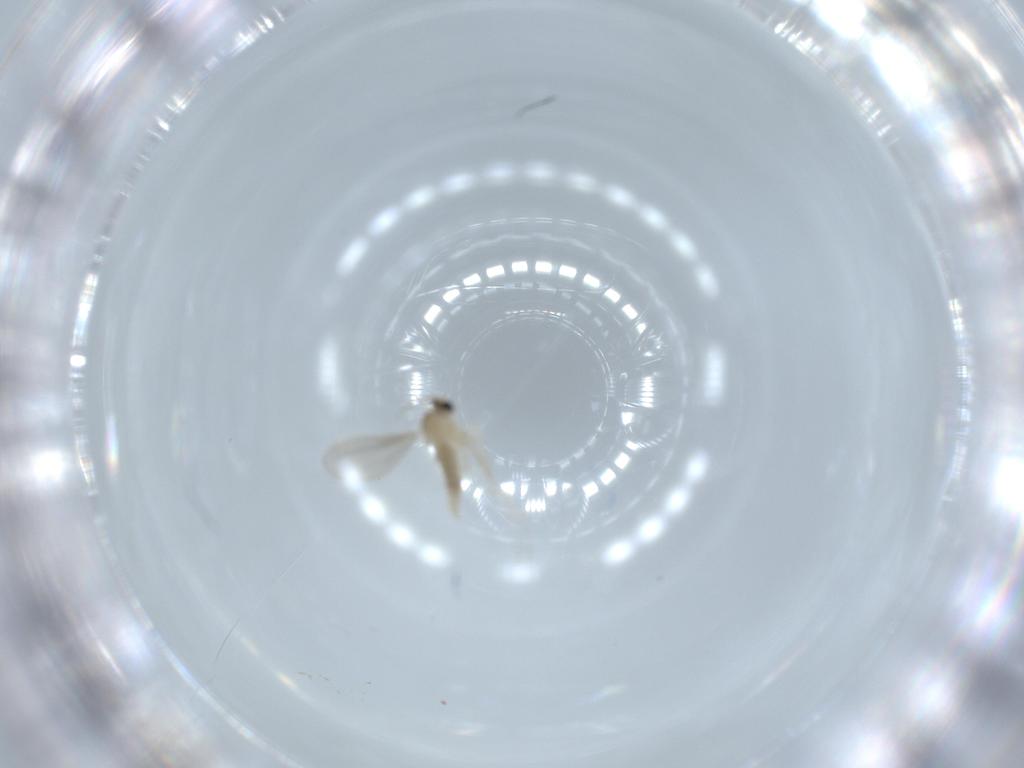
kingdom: Animalia
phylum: Arthropoda
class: Insecta
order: Diptera
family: Cecidomyiidae
